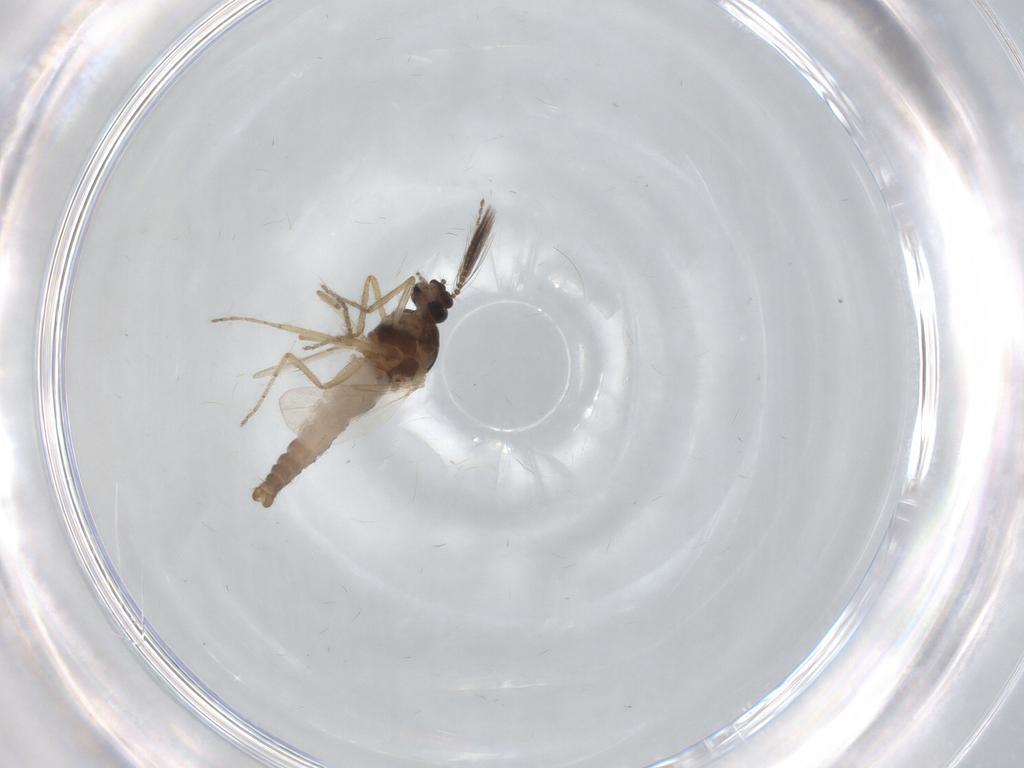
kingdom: Animalia
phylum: Arthropoda
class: Insecta
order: Diptera
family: Ceratopogonidae
